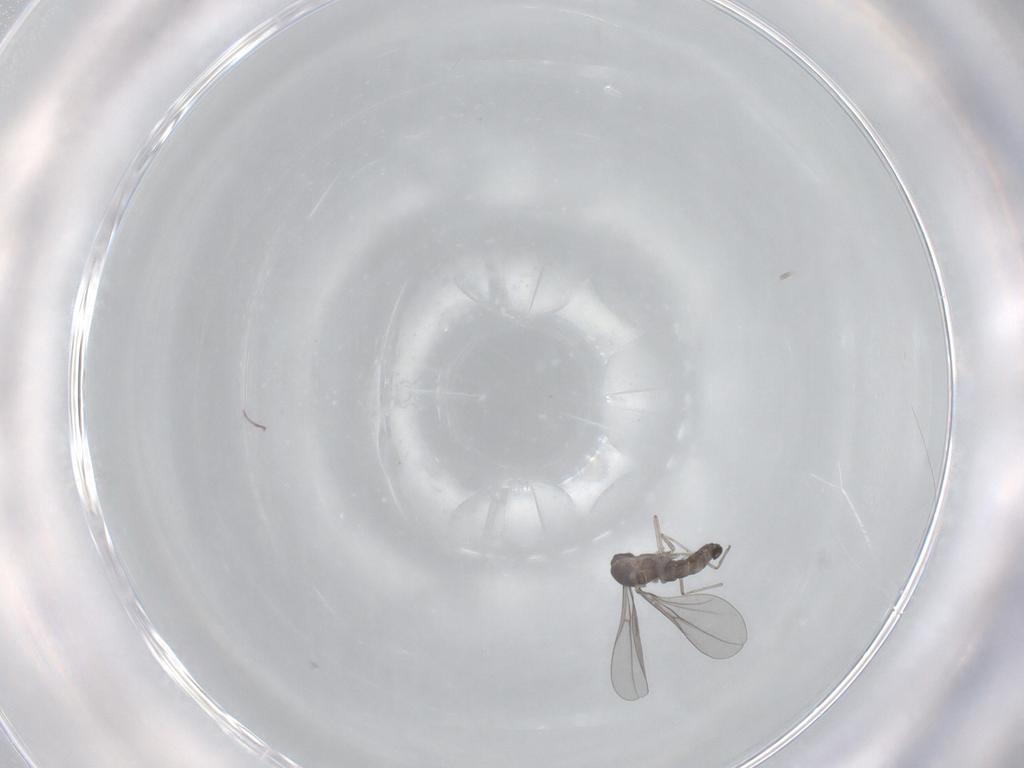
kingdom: Animalia
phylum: Arthropoda
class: Insecta
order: Diptera
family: Cecidomyiidae
